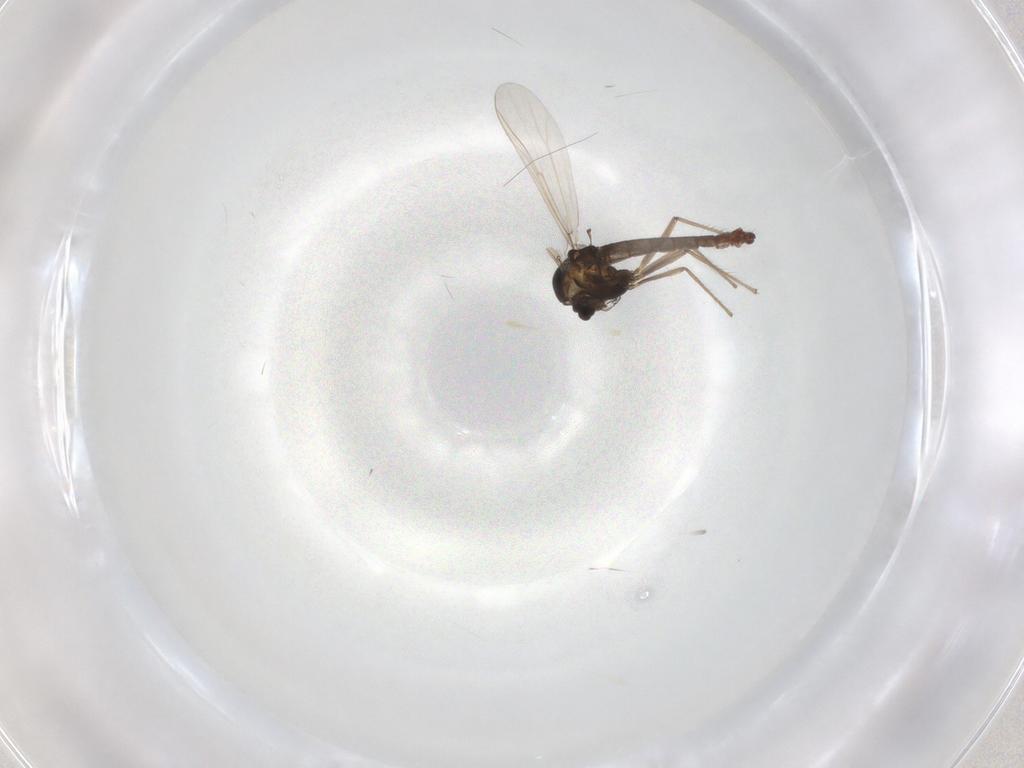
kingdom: Animalia
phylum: Arthropoda
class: Insecta
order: Diptera
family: Chironomidae
